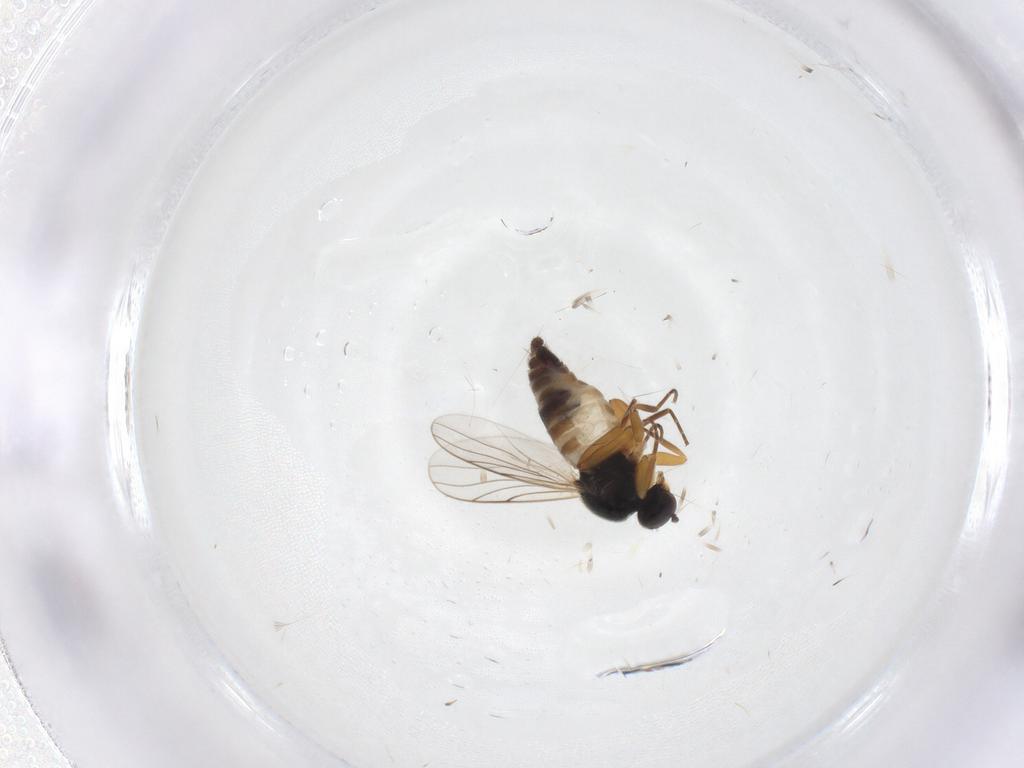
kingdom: Animalia
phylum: Arthropoda
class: Insecta
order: Diptera
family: Hybotidae
